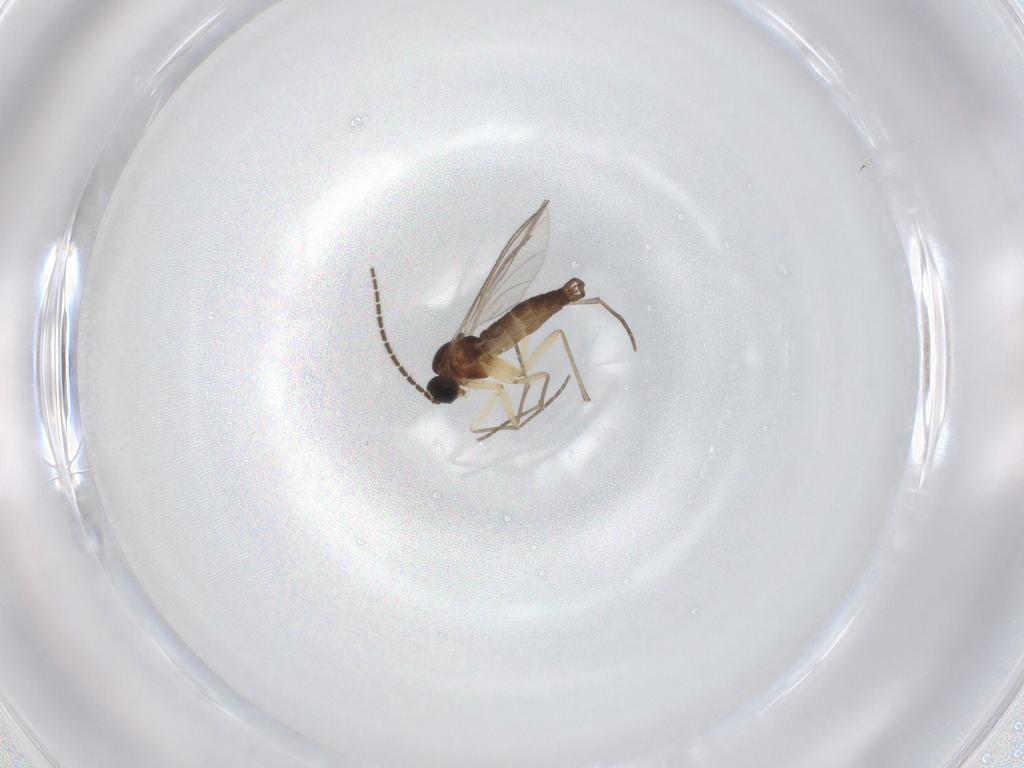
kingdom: Animalia
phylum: Arthropoda
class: Insecta
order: Diptera
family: Sciaridae
